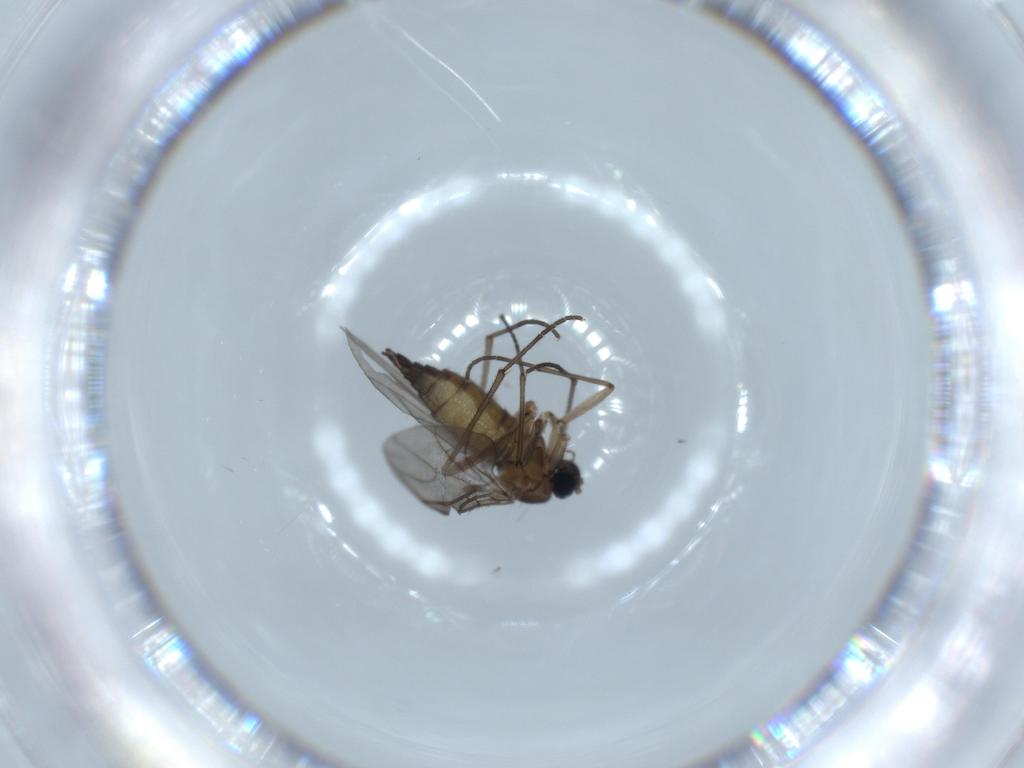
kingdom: Animalia
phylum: Arthropoda
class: Insecta
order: Diptera
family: Sciaridae
